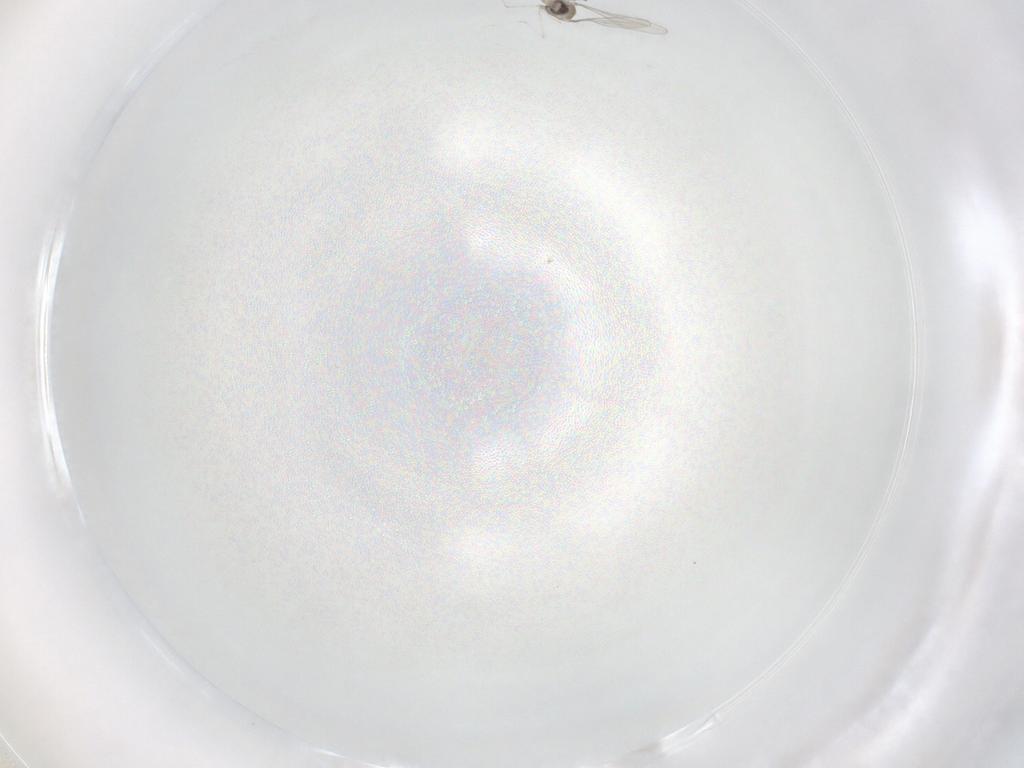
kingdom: Animalia
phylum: Arthropoda
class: Insecta
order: Diptera
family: Cecidomyiidae
